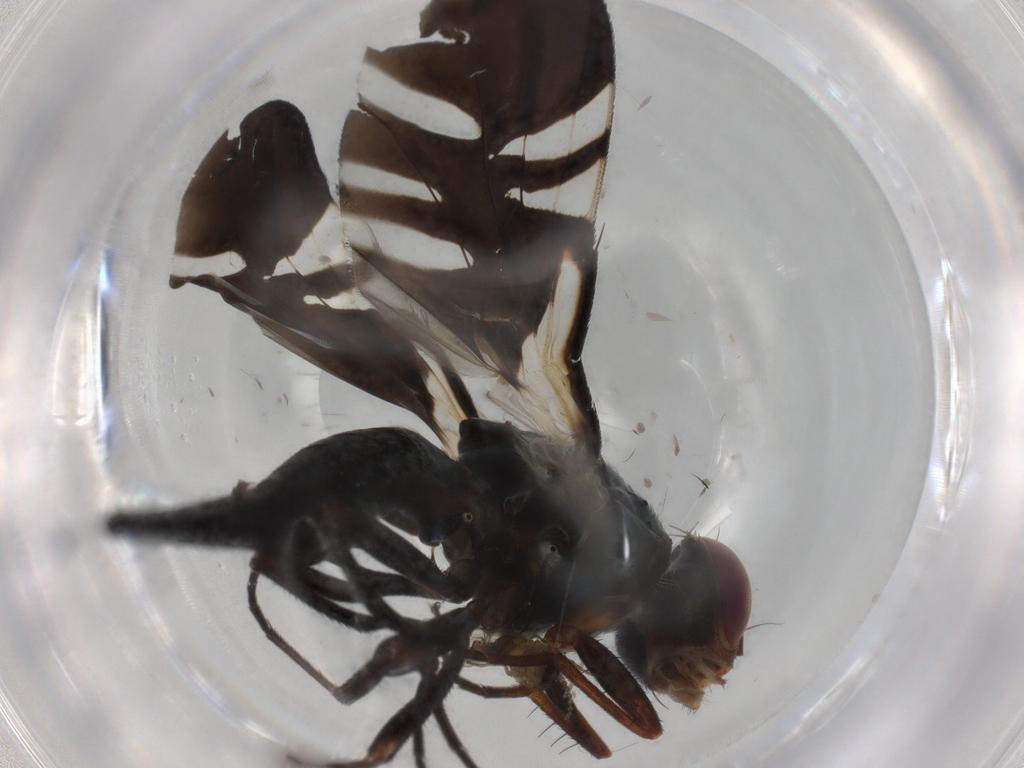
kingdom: Animalia
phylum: Arthropoda
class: Insecta
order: Diptera
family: Tephritidae
